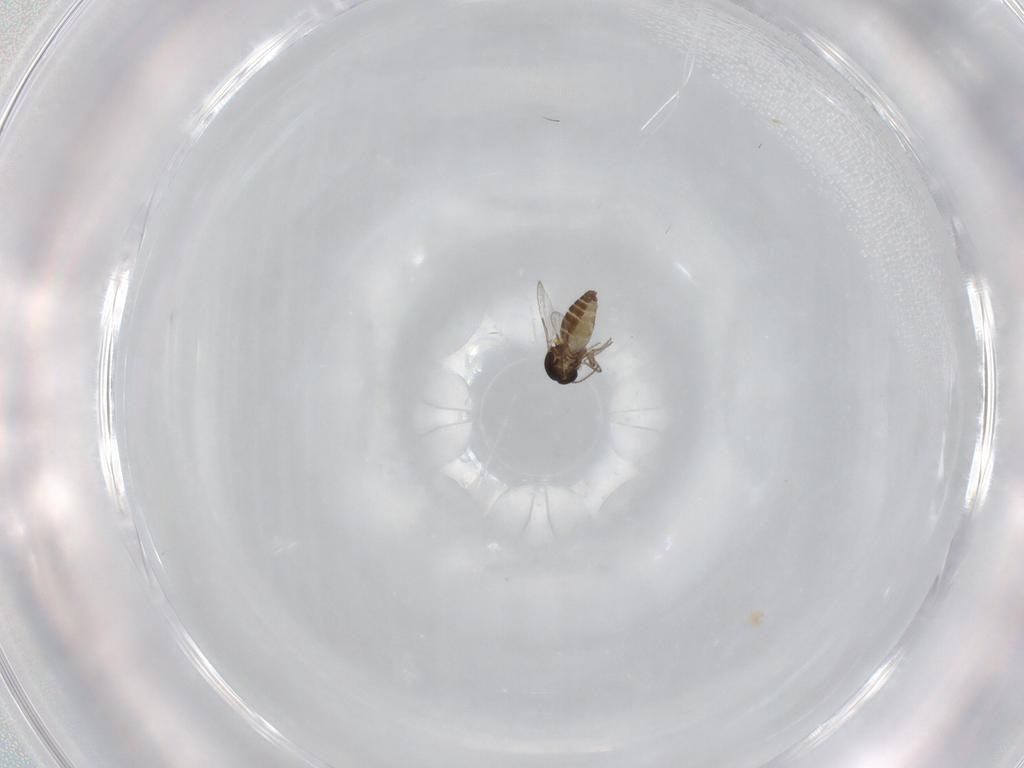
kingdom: Animalia
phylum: Arthropoda
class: Insecta
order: Diptera
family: Ceratopogonidae
